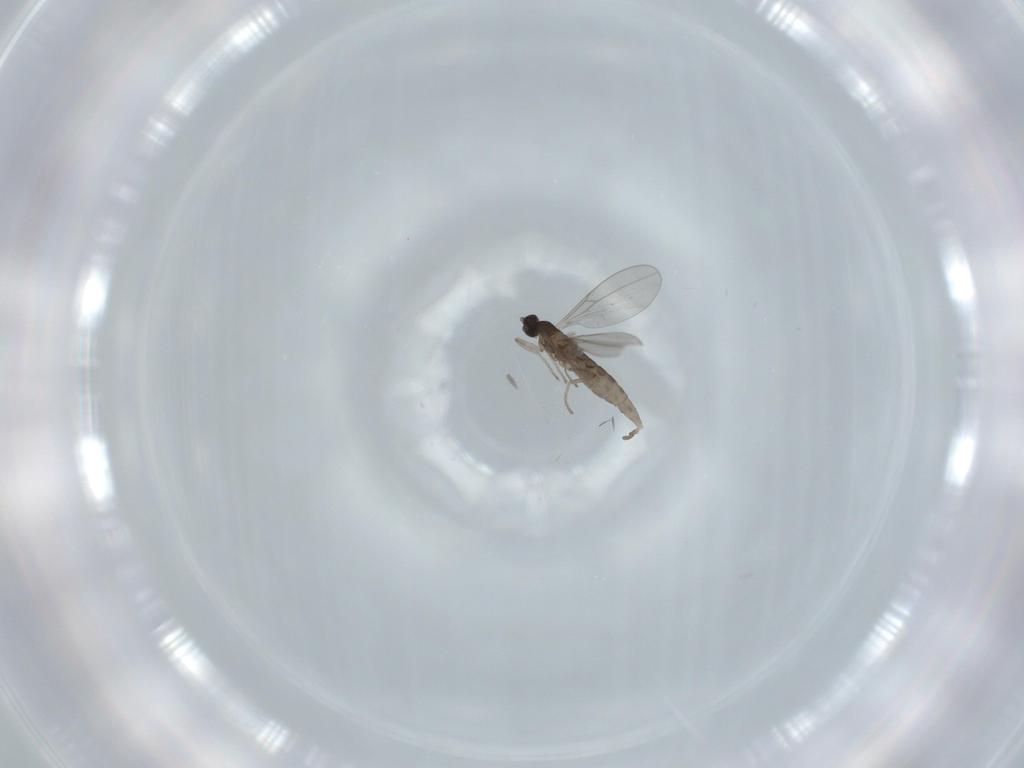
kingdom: Animalia
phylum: Arthropoda
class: Insecta
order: Diptera
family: Cecidomyiidae
